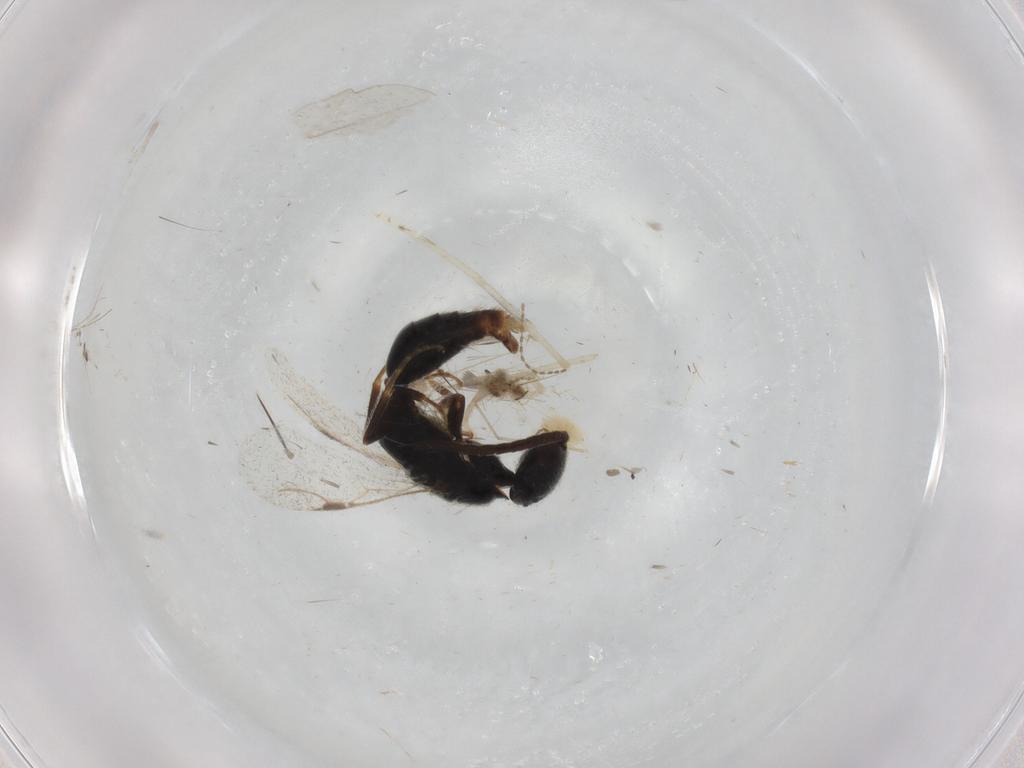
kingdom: Animalia
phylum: Arthropoda
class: Insecta
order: Hymenoptera
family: Bethylidae
